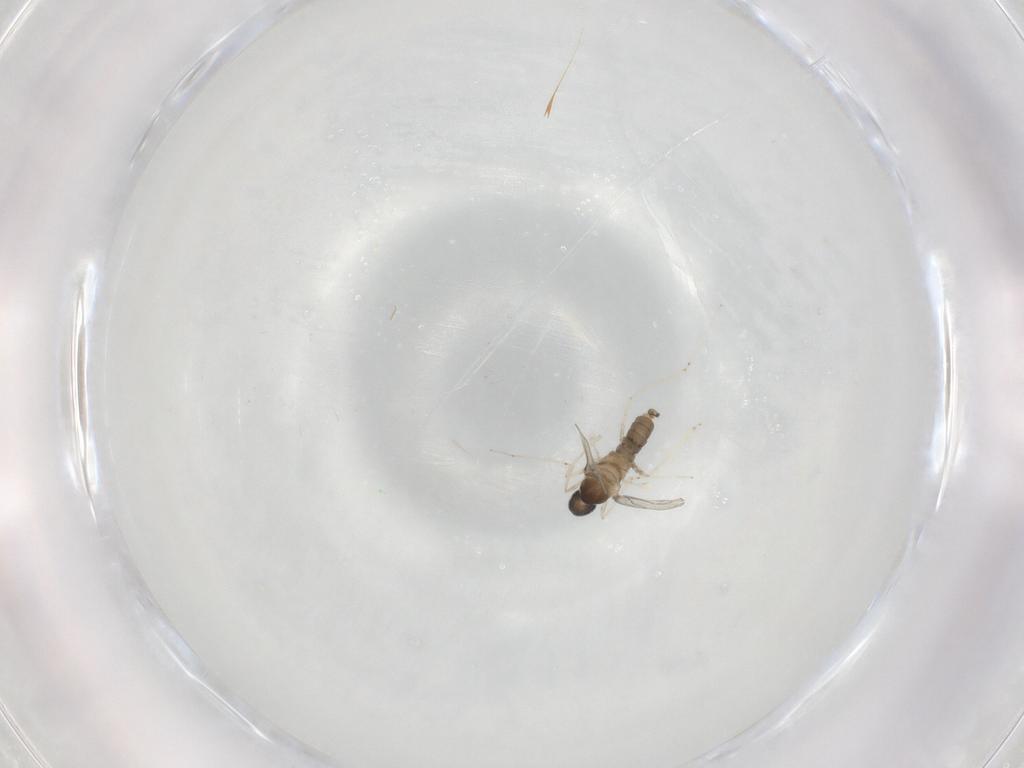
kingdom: Animalia
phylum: Arthropoda
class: Insecta
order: Diptera
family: Cecidomyiidae
